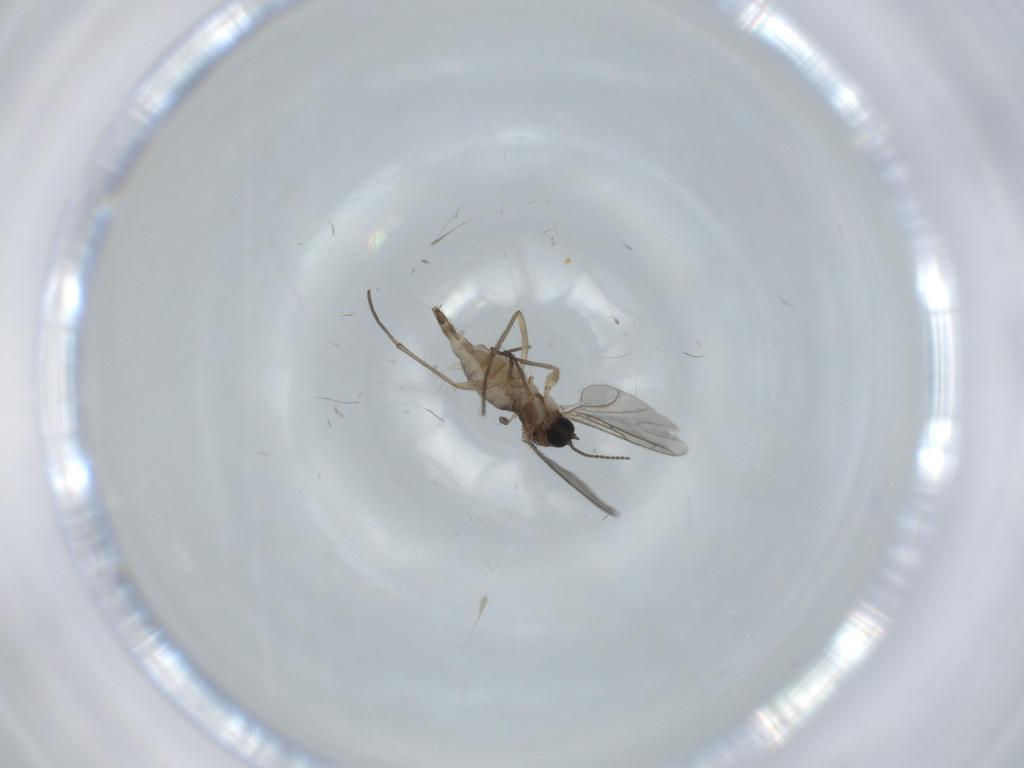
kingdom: Animalia
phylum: Arthropoda
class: Insecta
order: Diptera
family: Sciaridae
